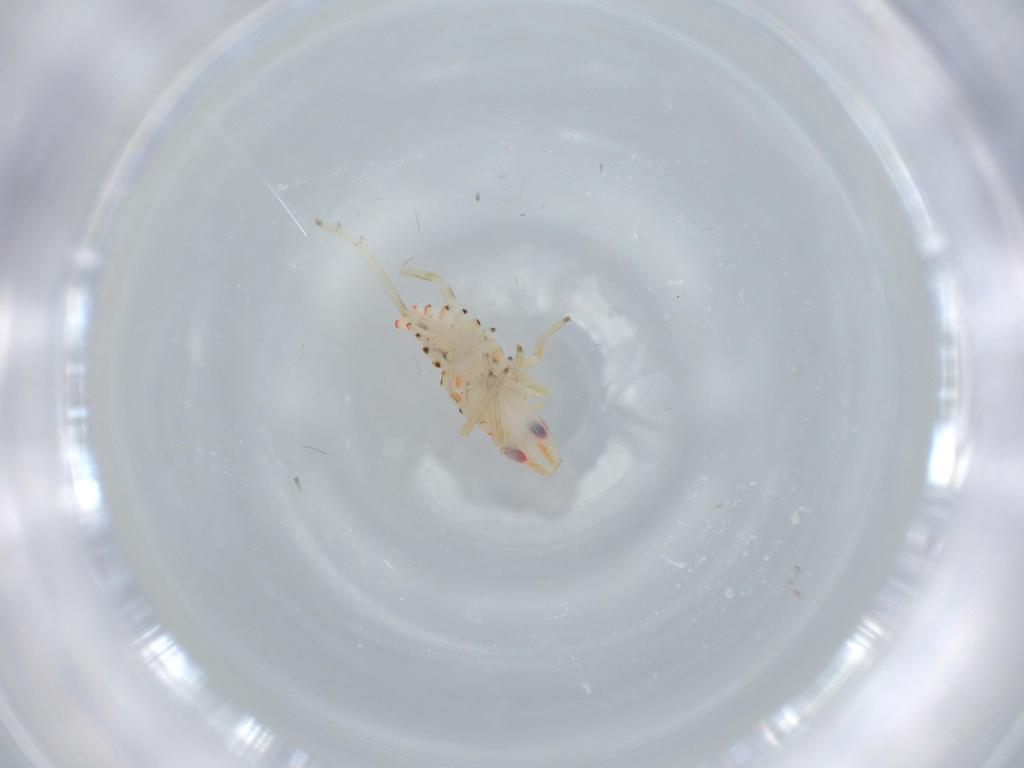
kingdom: Animalia
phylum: Arthropoda
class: Insecta
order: Hemiptera
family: Tropiduchidae
